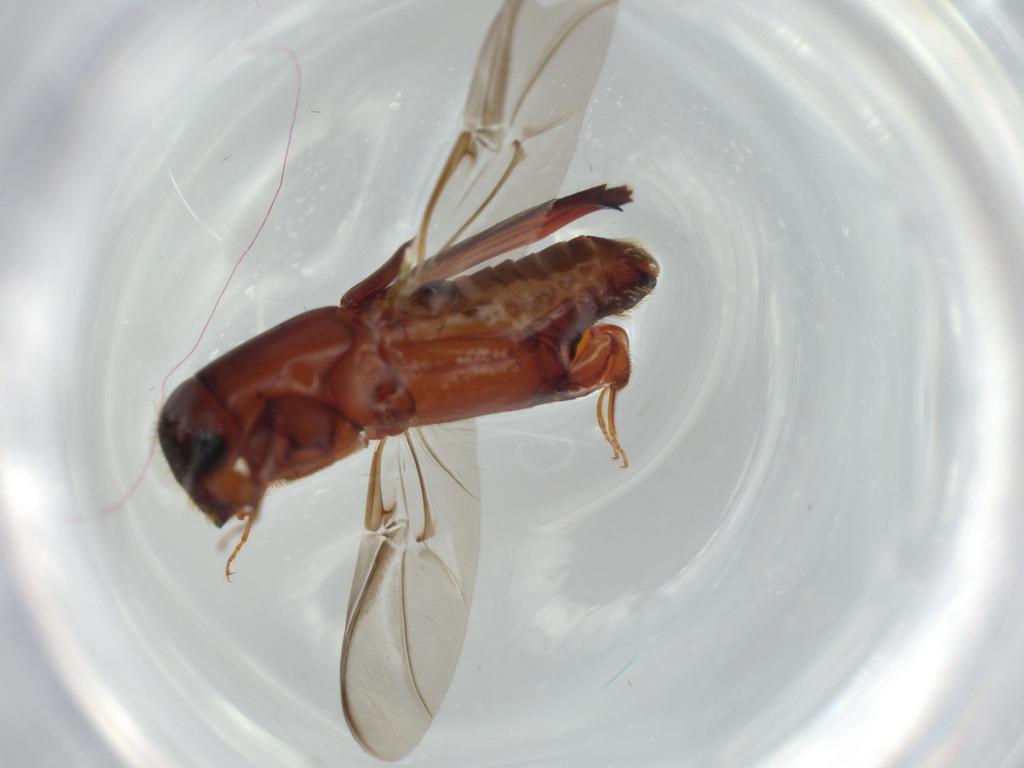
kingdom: Animalia
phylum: Arthropoda
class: Insecta
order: Coleoptera
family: Curculionidae
